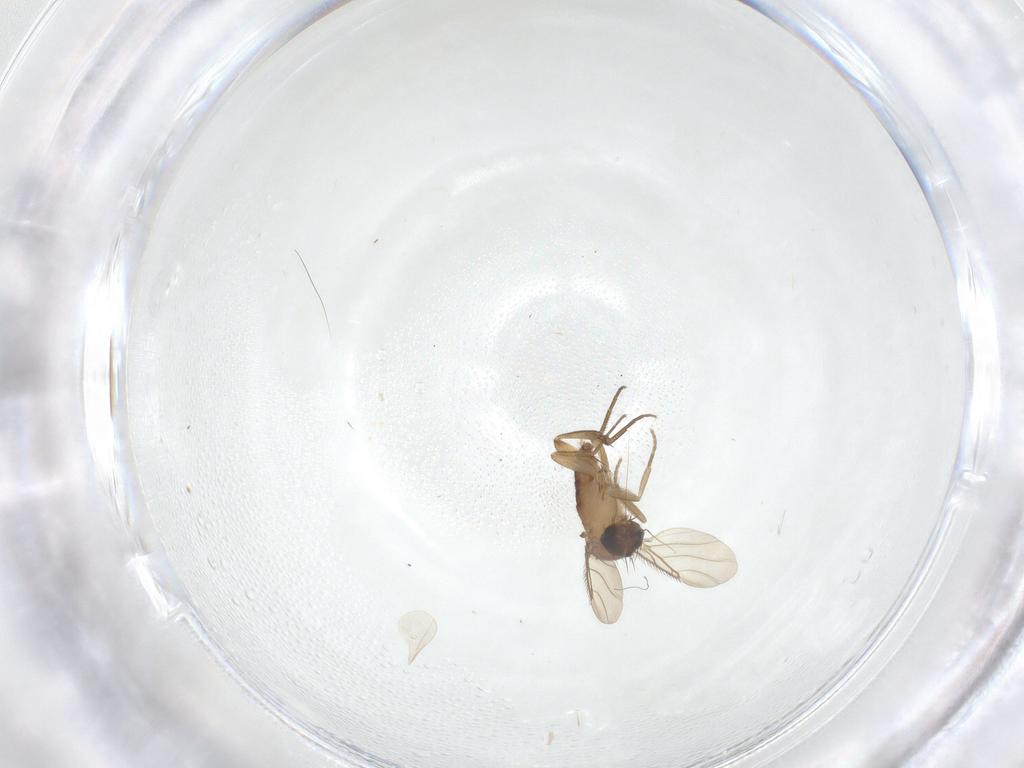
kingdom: Animalia
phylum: Arthropoda
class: Insecta
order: Diptera
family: Phoridae
